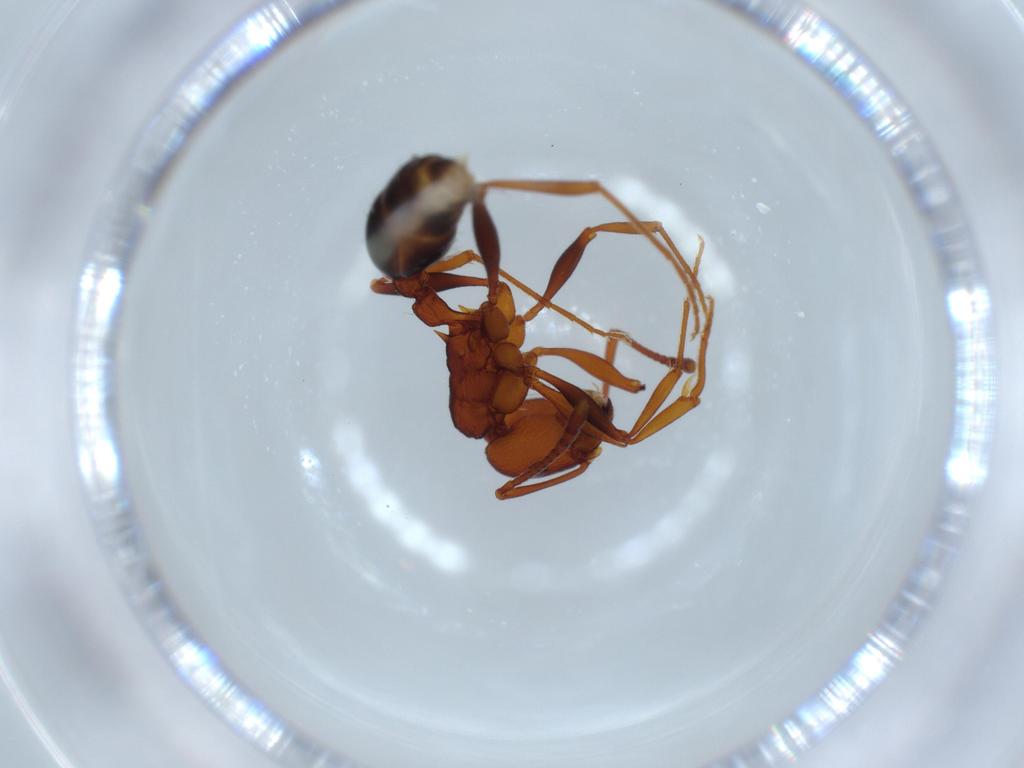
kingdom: Animalia
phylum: Arthropoda
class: Insecta
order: Hymenoptera
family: Formicidae
